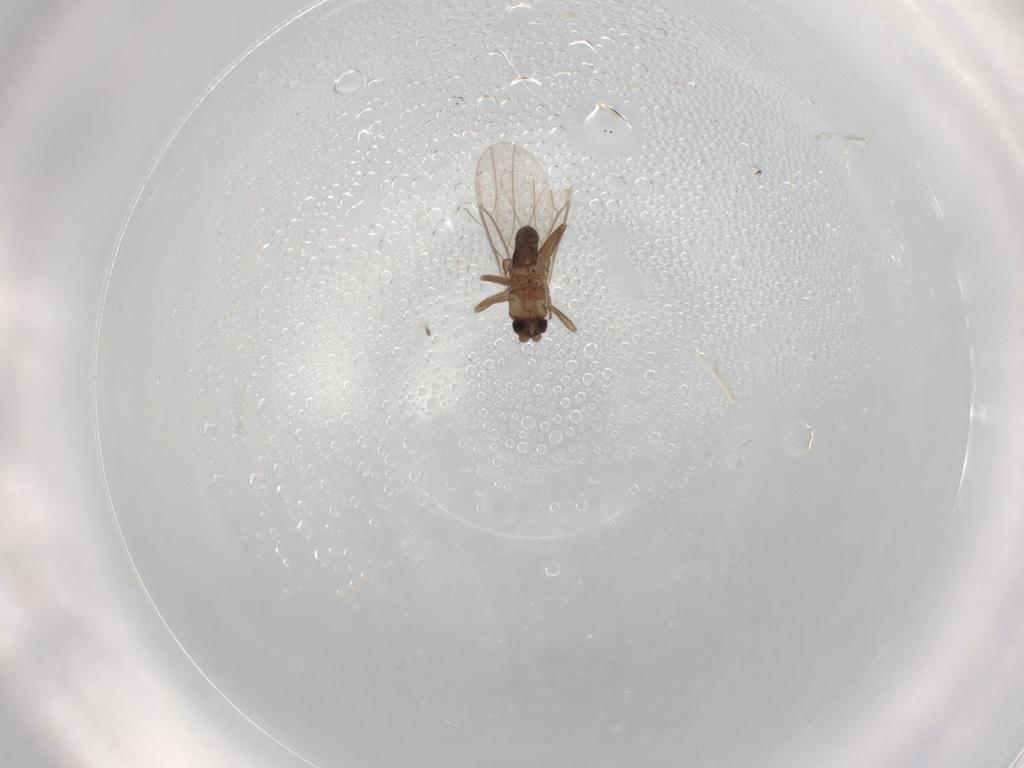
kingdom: Animalia
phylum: Arthropoda
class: Insecta
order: Diptera
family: Phoridae
